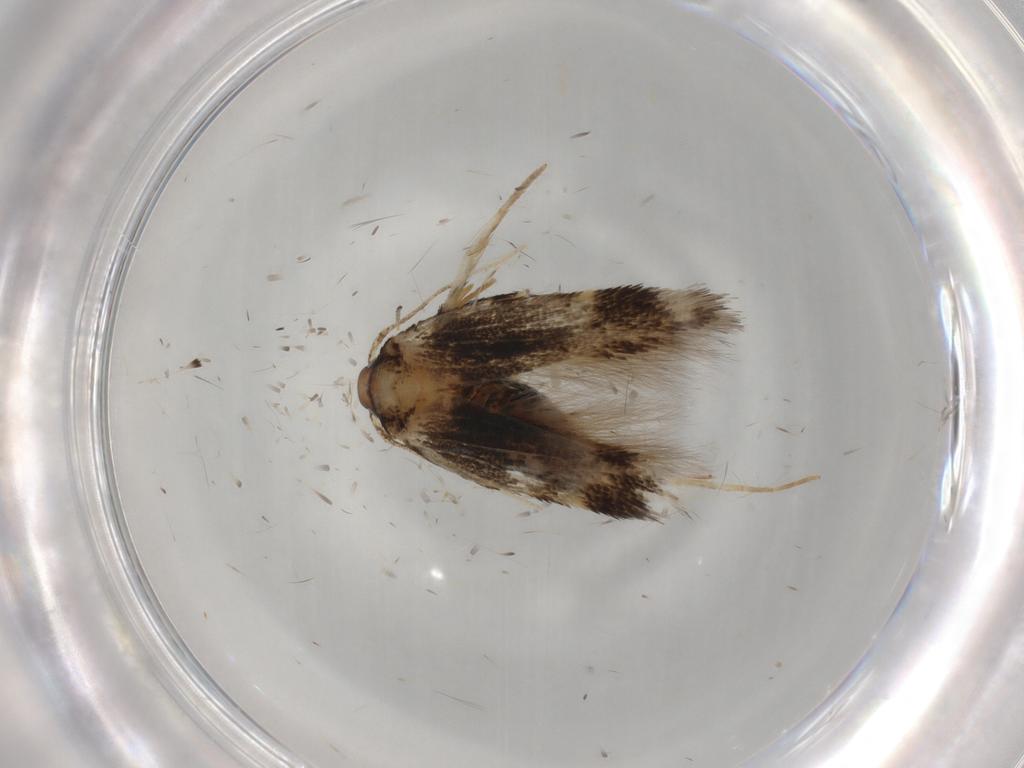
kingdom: Animalia
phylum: Arthropoda
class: Insecta
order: Lepidoptera
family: Cosmopterigidae
